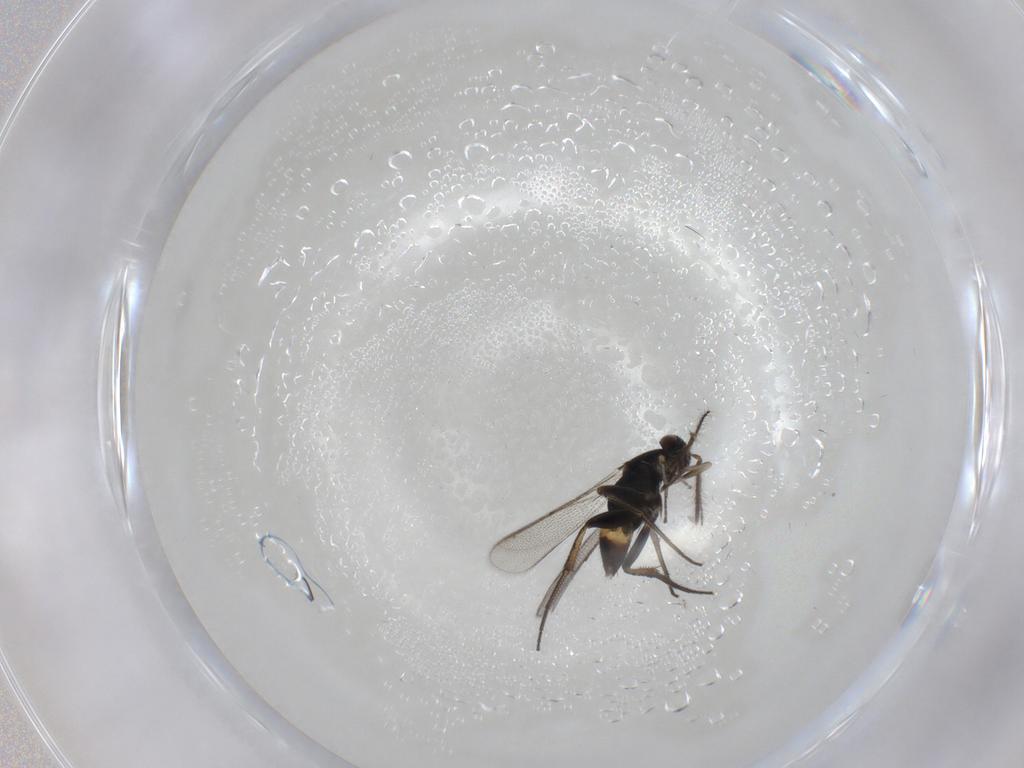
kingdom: Animalia
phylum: Arthropoda
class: Insecta
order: Hymenoptera
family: Eulophidae
